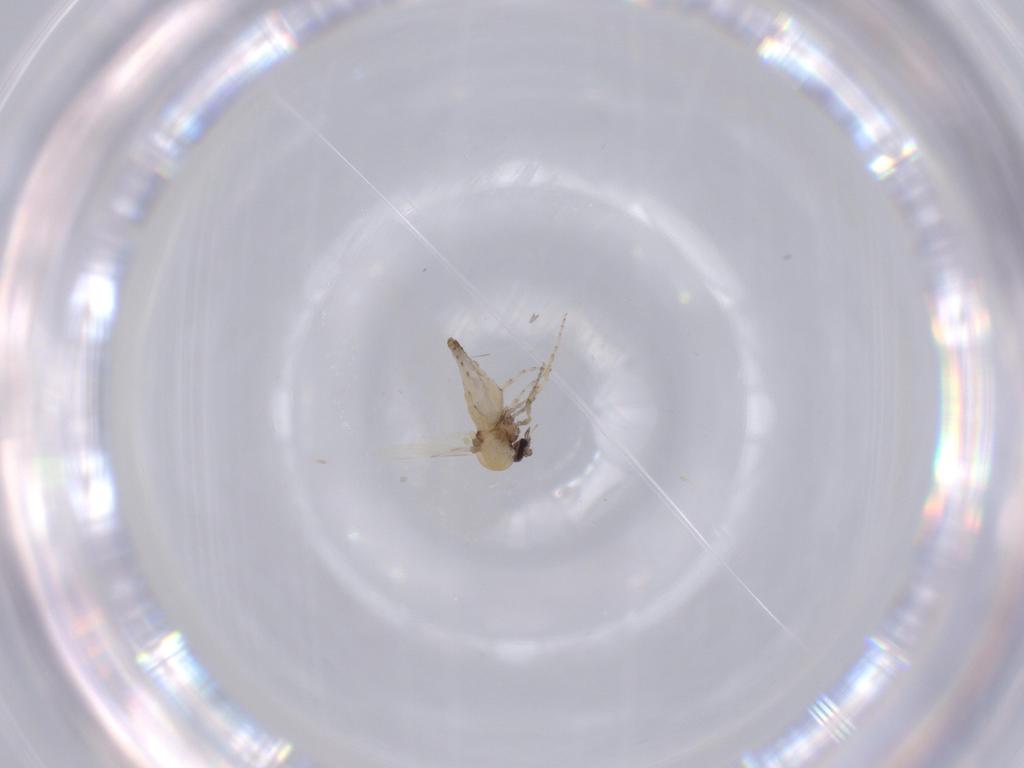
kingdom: Animalia
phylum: Arthropoda
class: Insecta
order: Diptera
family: Ceratopogonidae
